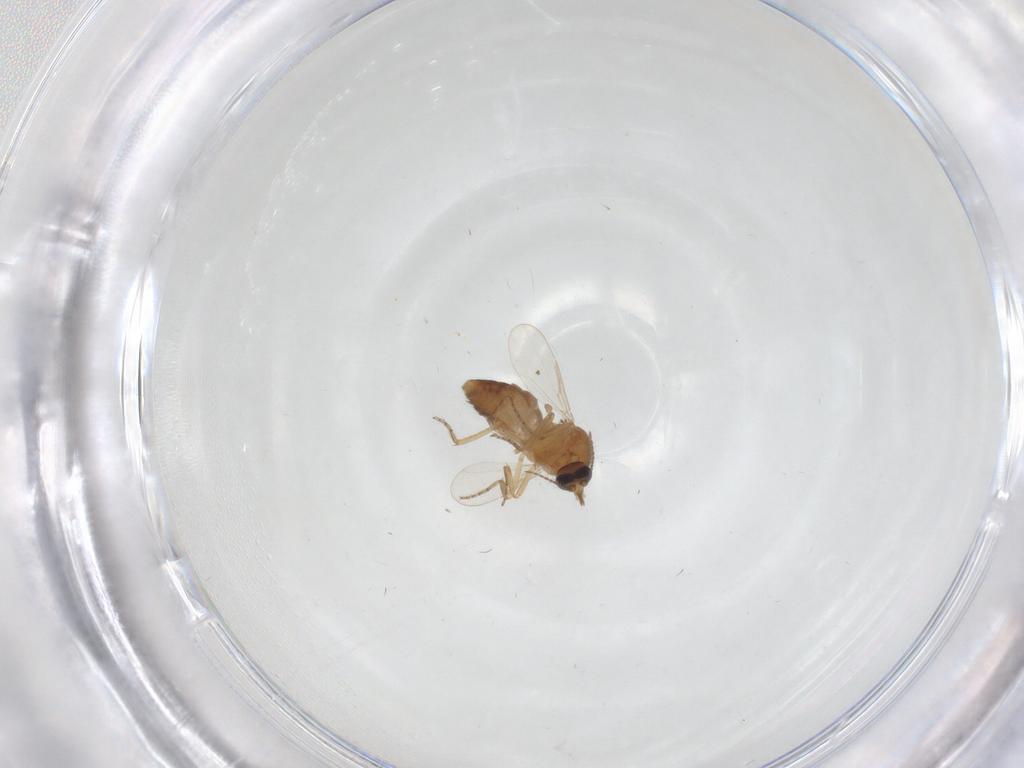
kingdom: Animalia
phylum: Arthropoda
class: Insecta
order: Diptera
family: Ceratopogonidae
